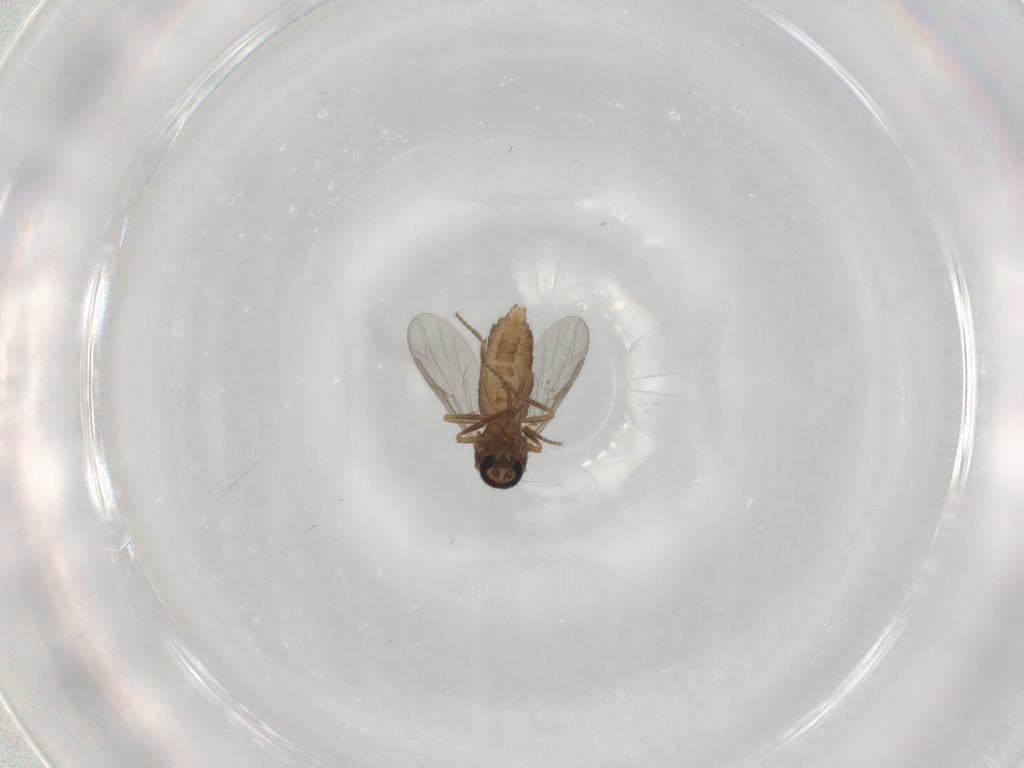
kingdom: Animalia
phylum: Arthropoda
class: Insecta
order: Diptera
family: Ceratopogonidae
